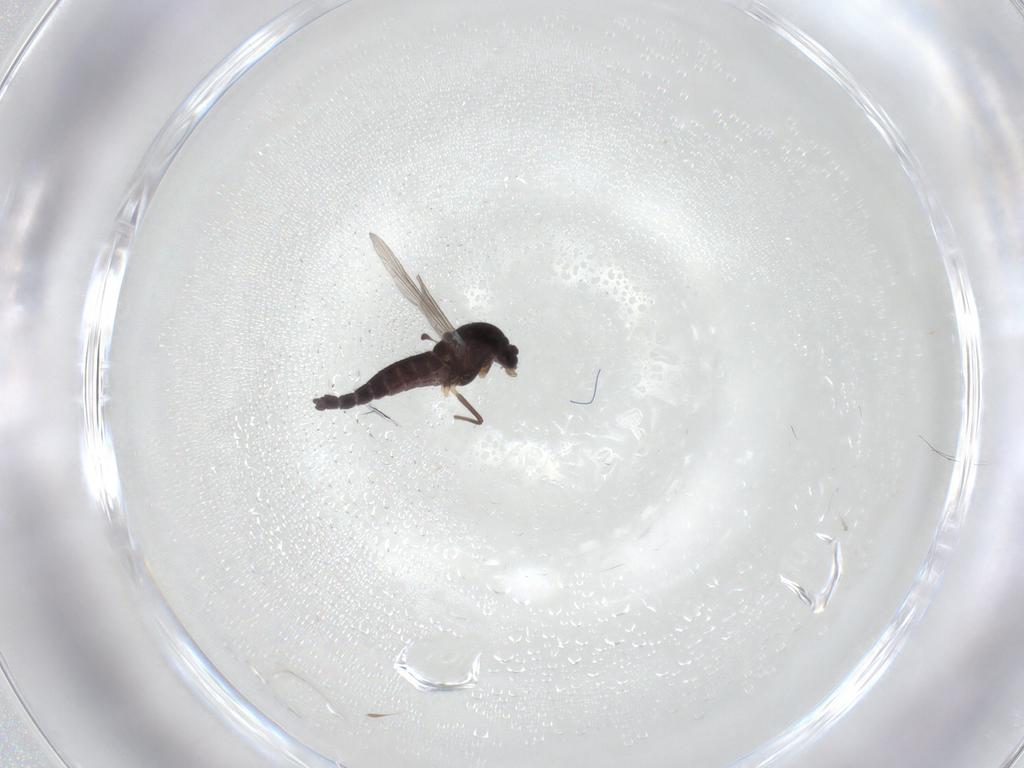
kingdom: Animalia
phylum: Arthropoda
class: Insecta
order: Diptera
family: Chironomidae
